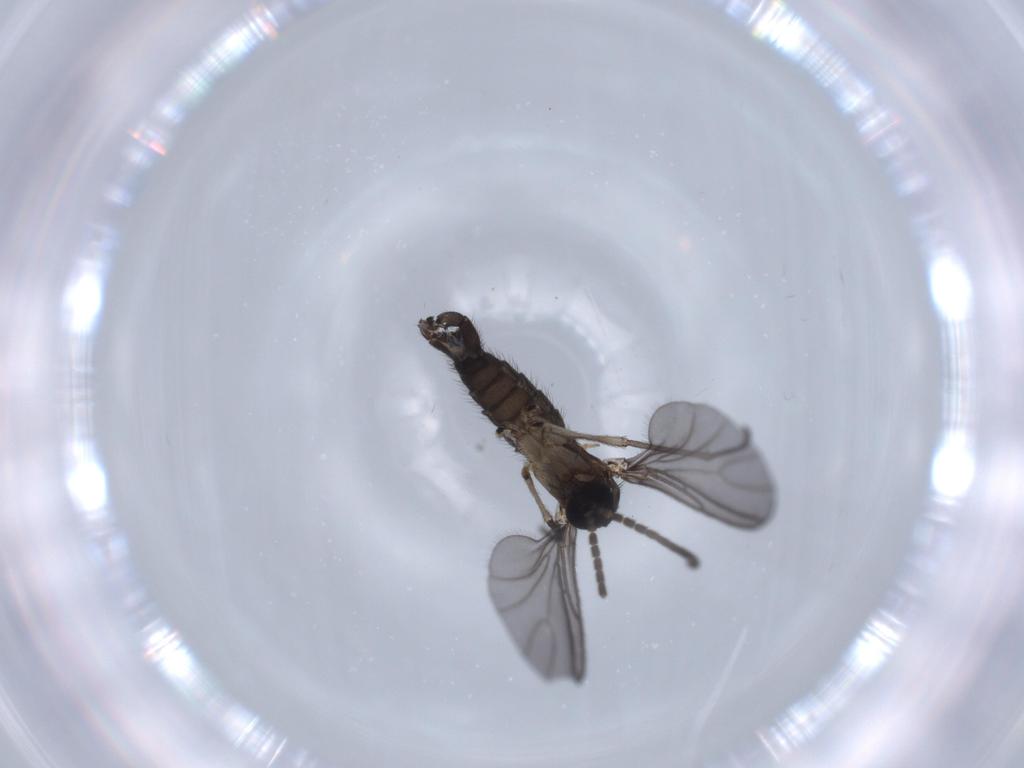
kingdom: Animalia
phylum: Arthropoda
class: Insecta
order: Diptera
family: Sciaridae
